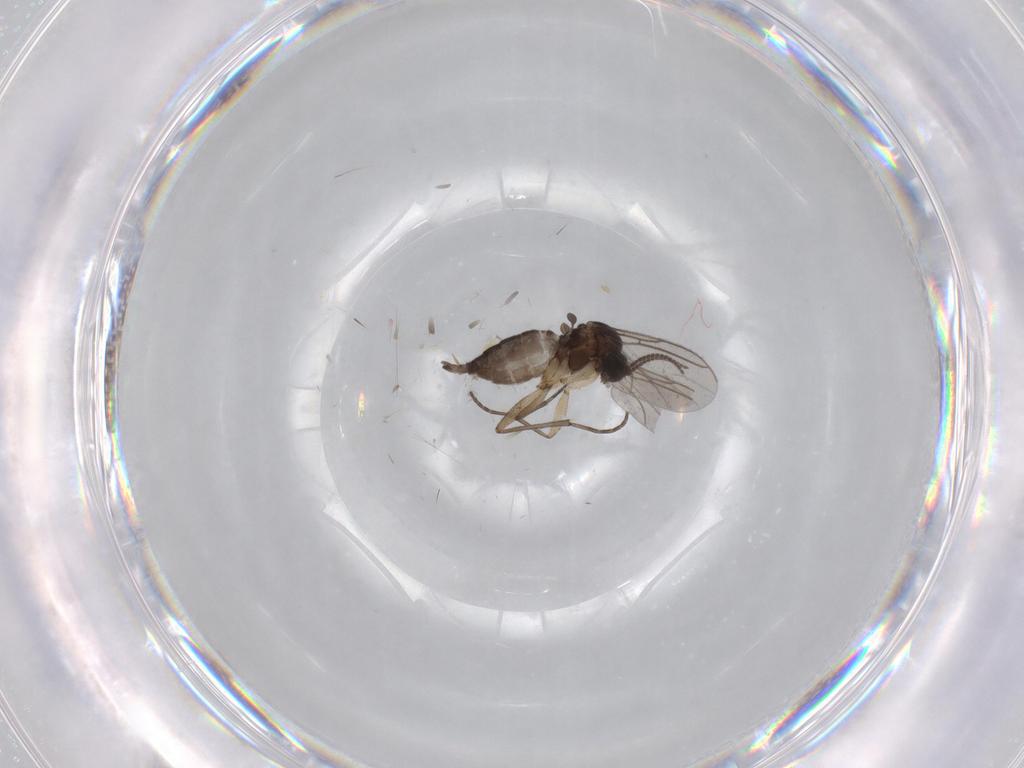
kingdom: Animalia
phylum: Arthropoda
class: Insecta
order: Diptera
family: Sciaridae
